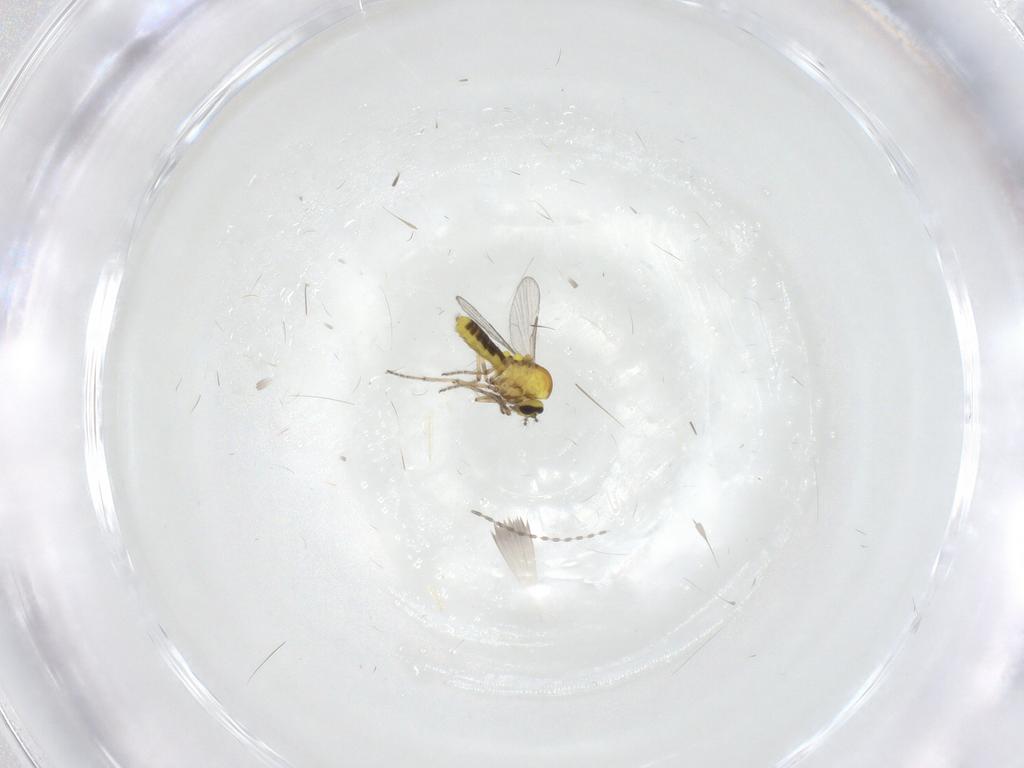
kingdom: Animalia
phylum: Arthropoda
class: Insecta
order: Diptera
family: Ceratopogonidae
